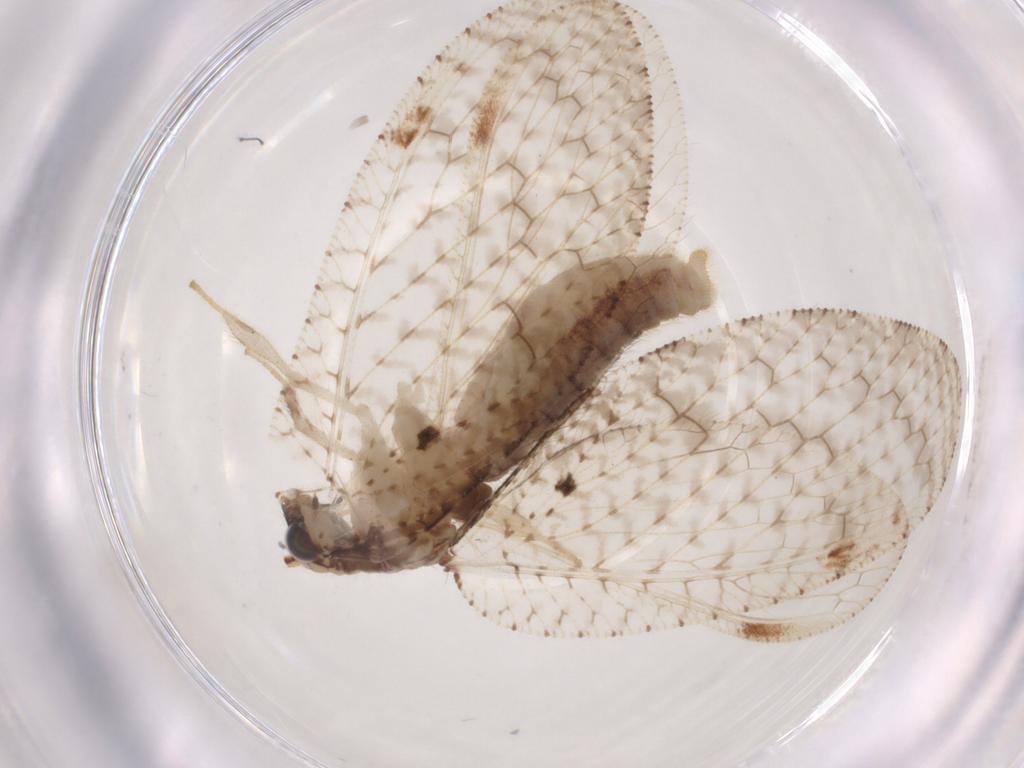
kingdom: Animalia
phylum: Arthropoda
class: Insecta
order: Neuroptera
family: Hemerobiidae
